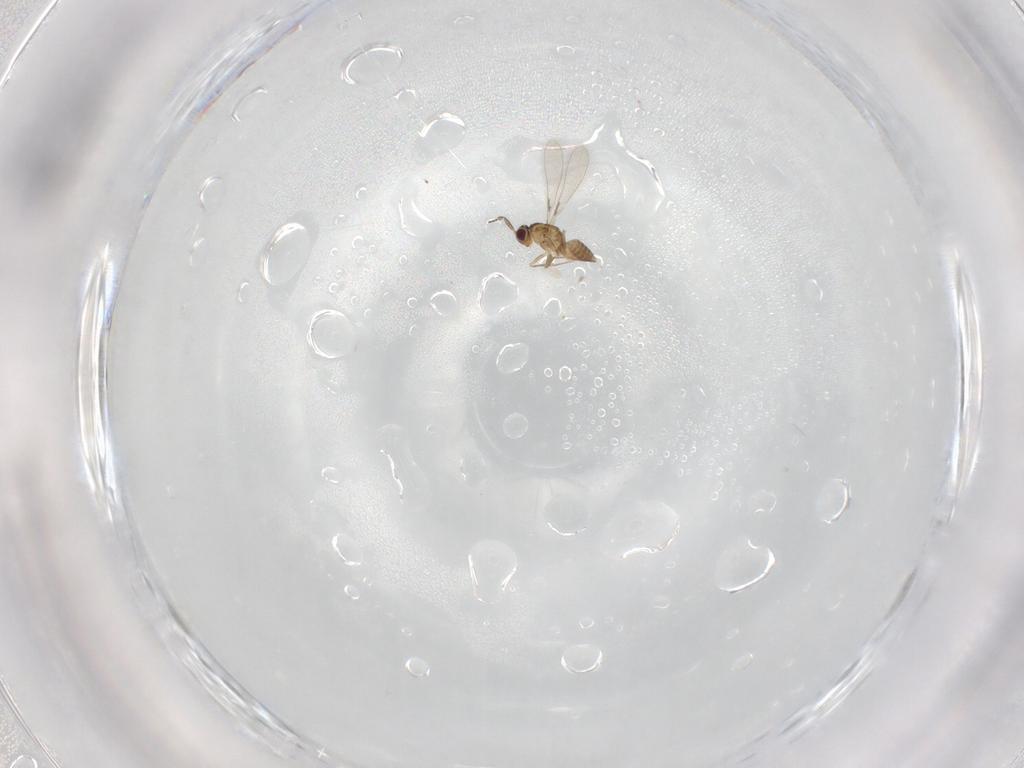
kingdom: Animalia
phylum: Arthropoda
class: Insecta
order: Hymenoptera
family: Mymaridae
